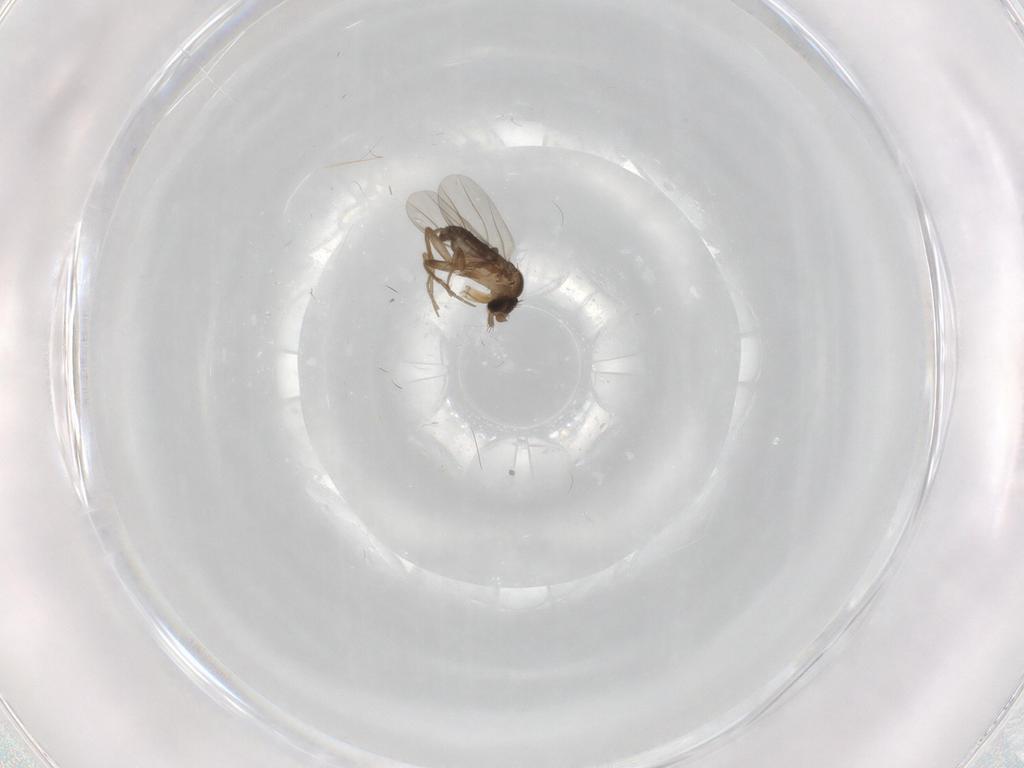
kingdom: Animalia
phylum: Arthropoda
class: Insecta
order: Diptera
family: Phoridae
